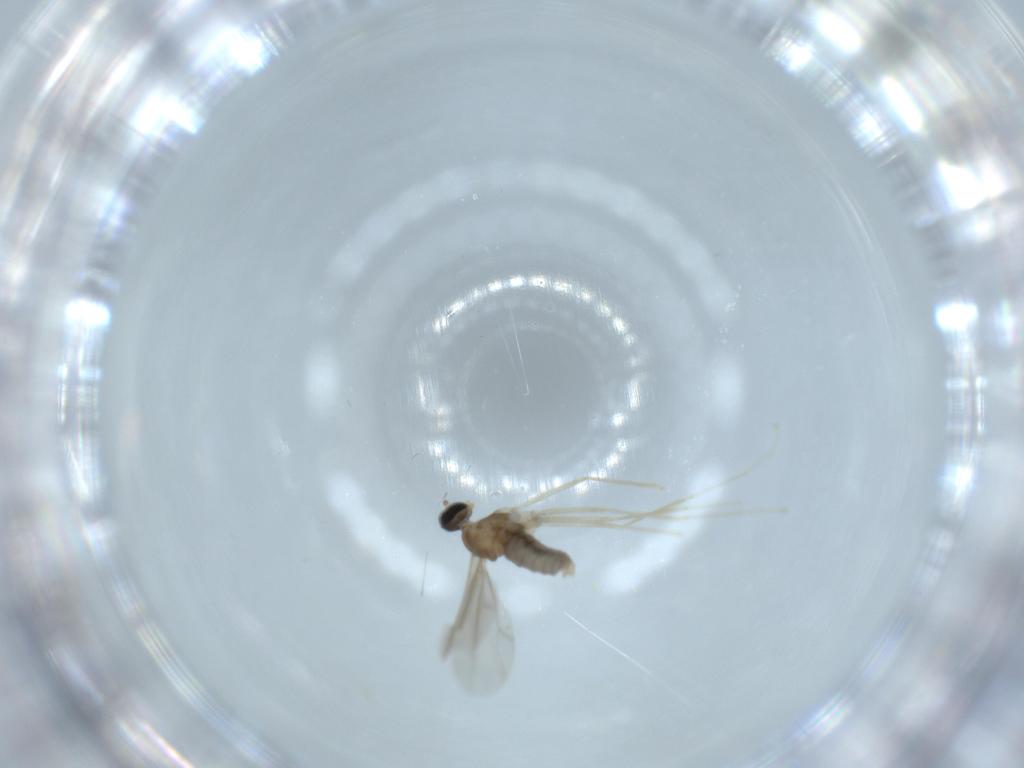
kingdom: Animalia
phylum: Arthropoda
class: Insecta
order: Diptera
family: Cecidomyiidae
